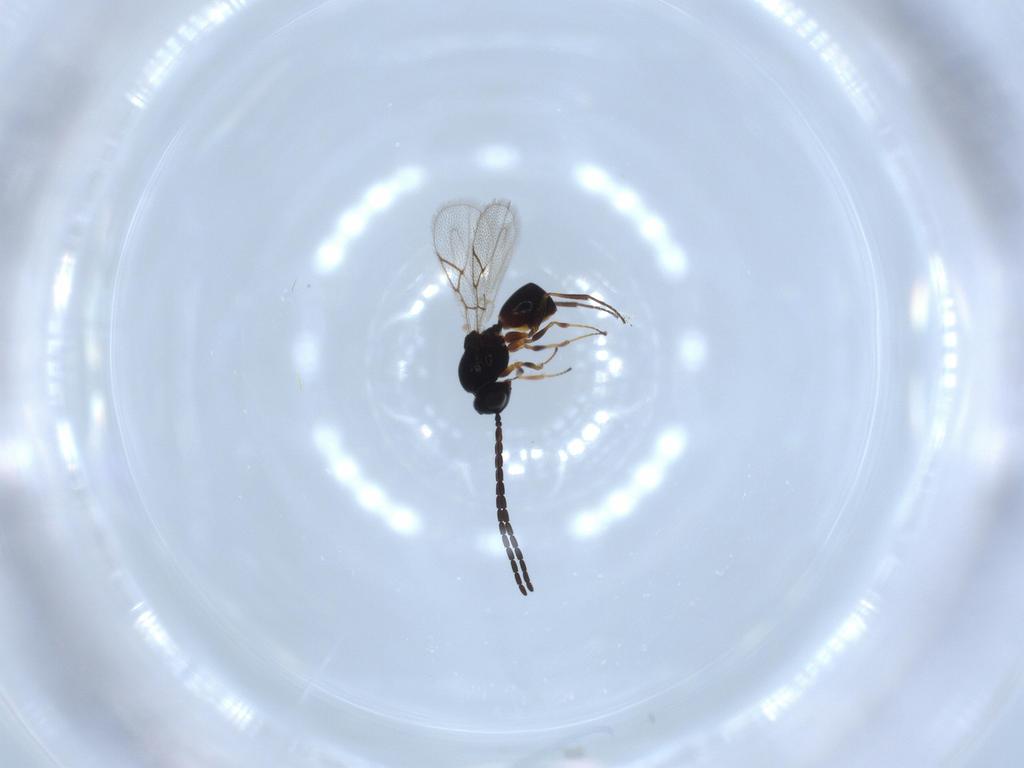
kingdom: Animalia
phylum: Arthropoda
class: Insecta
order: Hymenoptera
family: Figitidae
